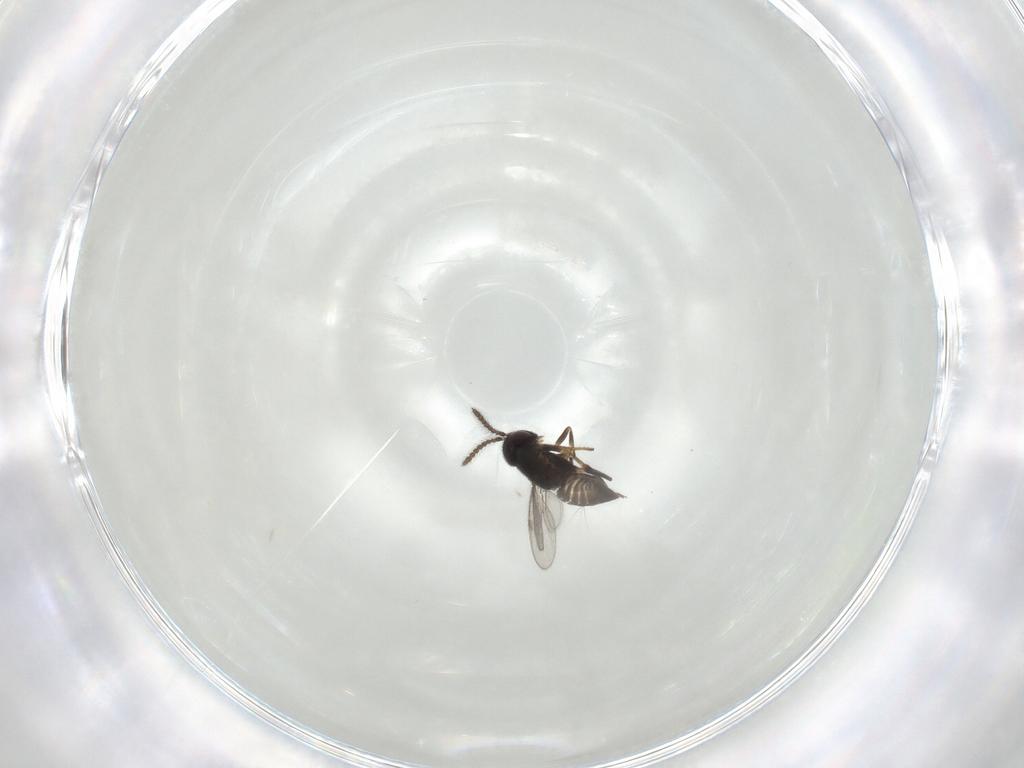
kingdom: Animalia
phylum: Arthropoda
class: Insecta
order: Hymenoptera
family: Encyrtidae
